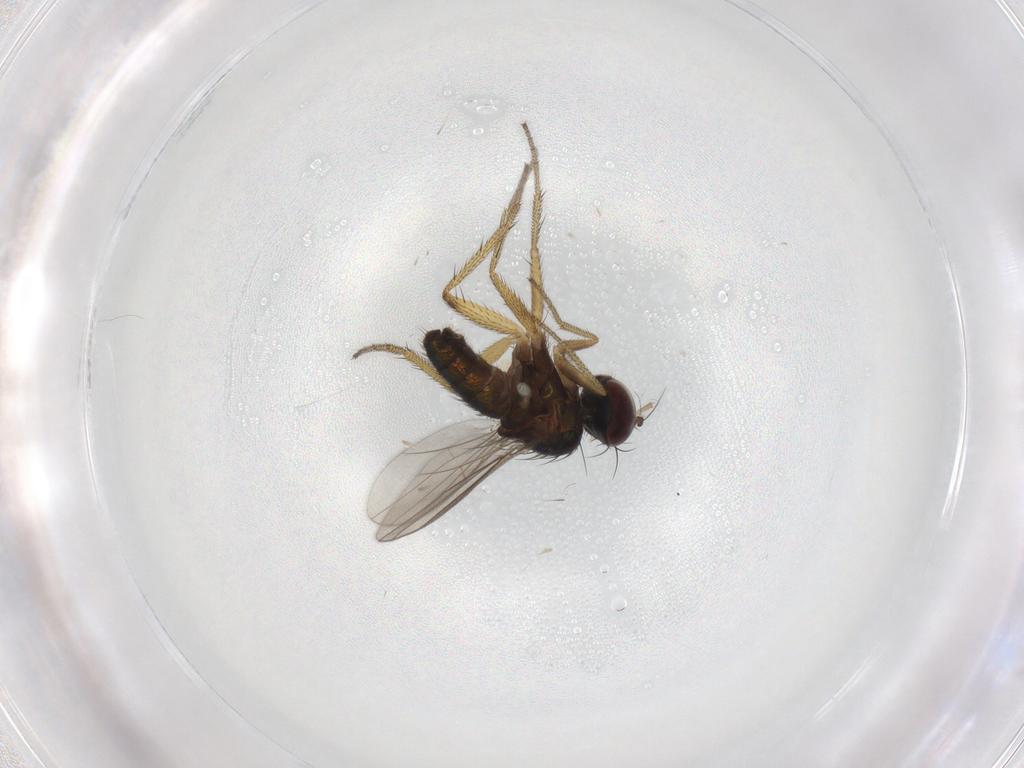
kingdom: Animalia
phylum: Arthropoda
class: Insecta
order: Diptera
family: Chironomidae
